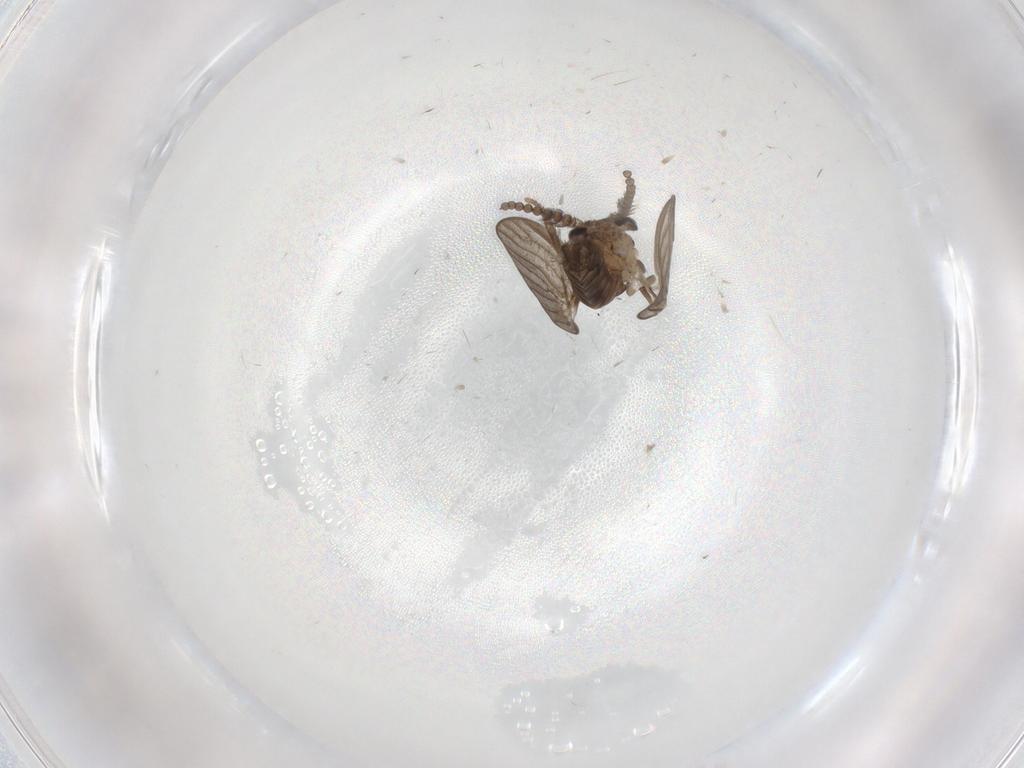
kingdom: Animalia
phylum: Arthropoda
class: Insecta
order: Diptera
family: Psychodidae
